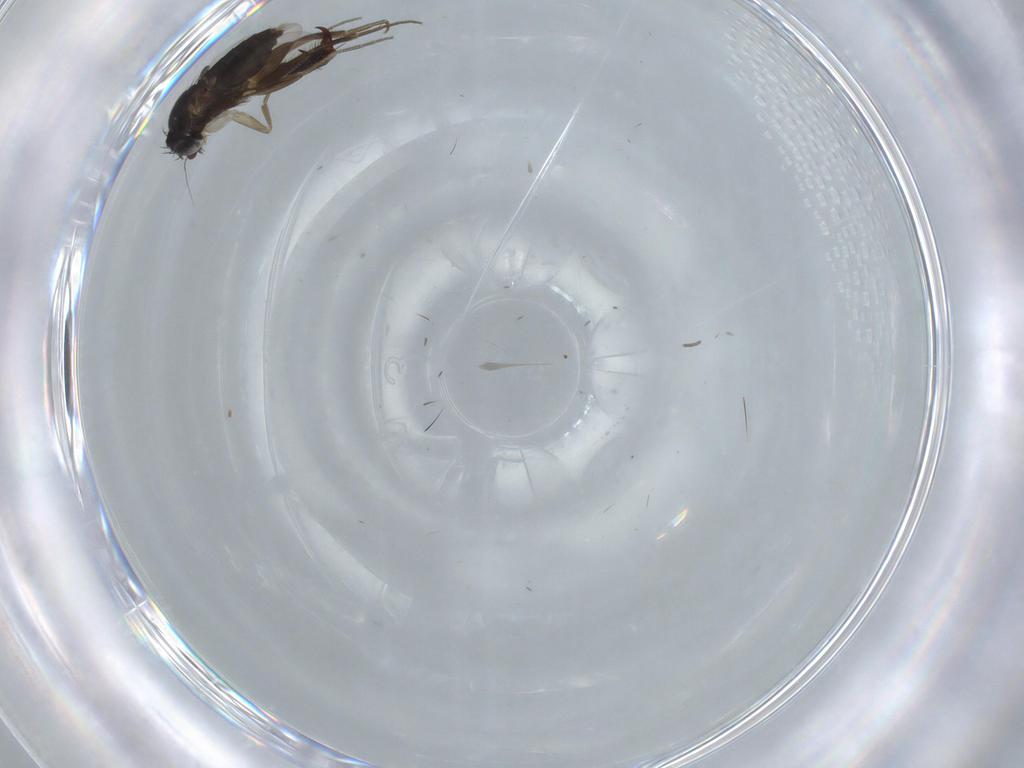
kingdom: Animalia
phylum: Arthropoda
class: Insecta
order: Diptera
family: Phoridae
